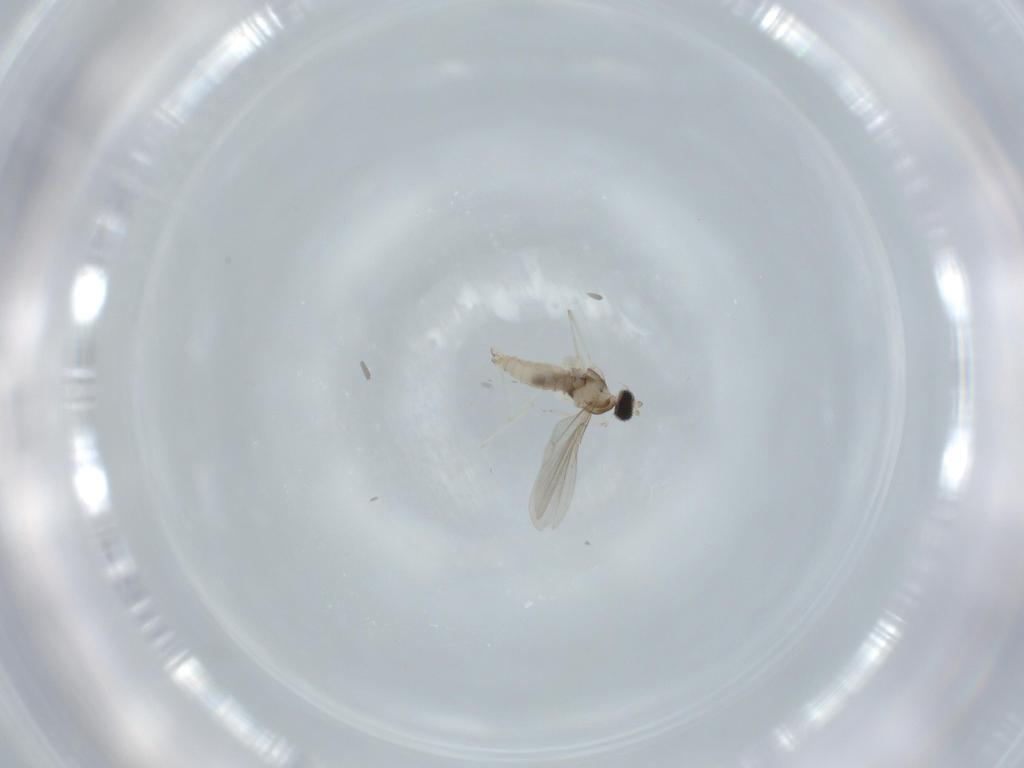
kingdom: Animalia
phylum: Arthropoda
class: Insecta
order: Diptera
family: Cecidomyiidae
